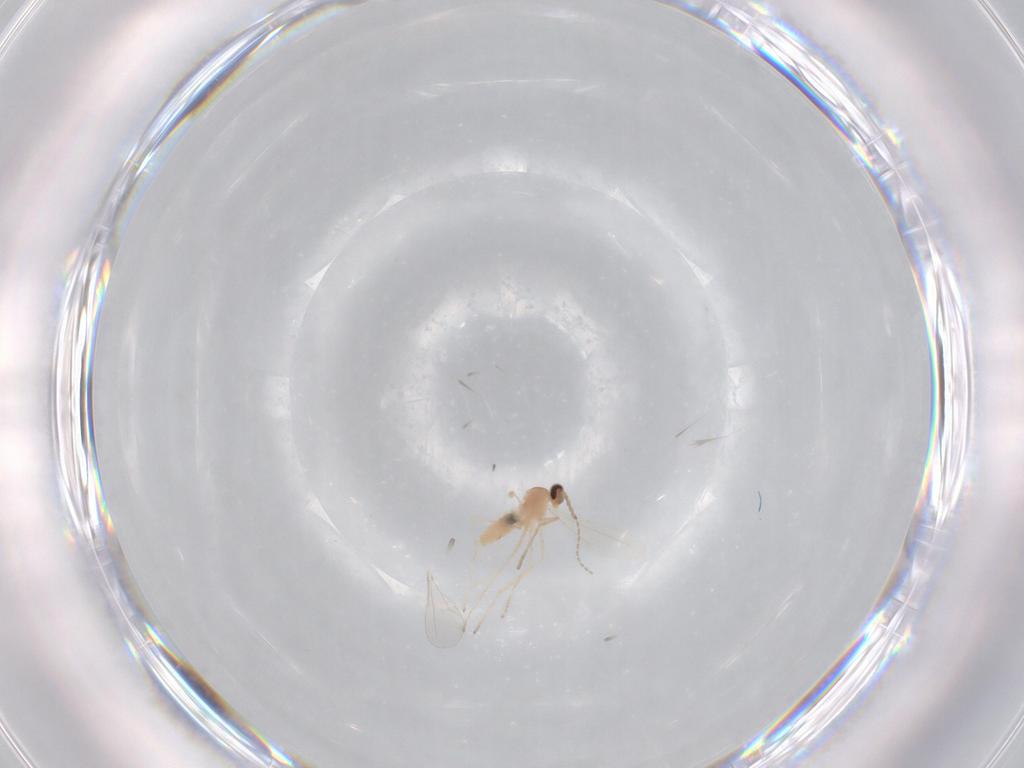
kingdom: Animalia
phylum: Arthropoda
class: Insecta
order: Diptera
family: Cecidomyiidae
